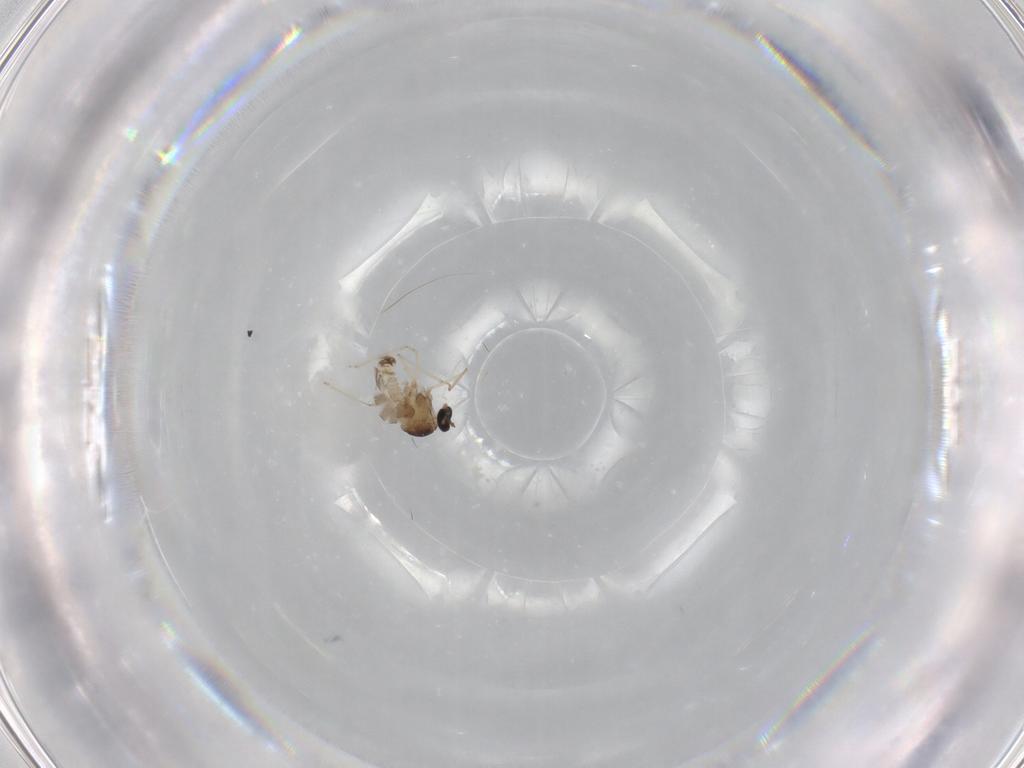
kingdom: Animalia
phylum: Arthropoda
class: Insecta
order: Diptera
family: Cecidomyiidae
